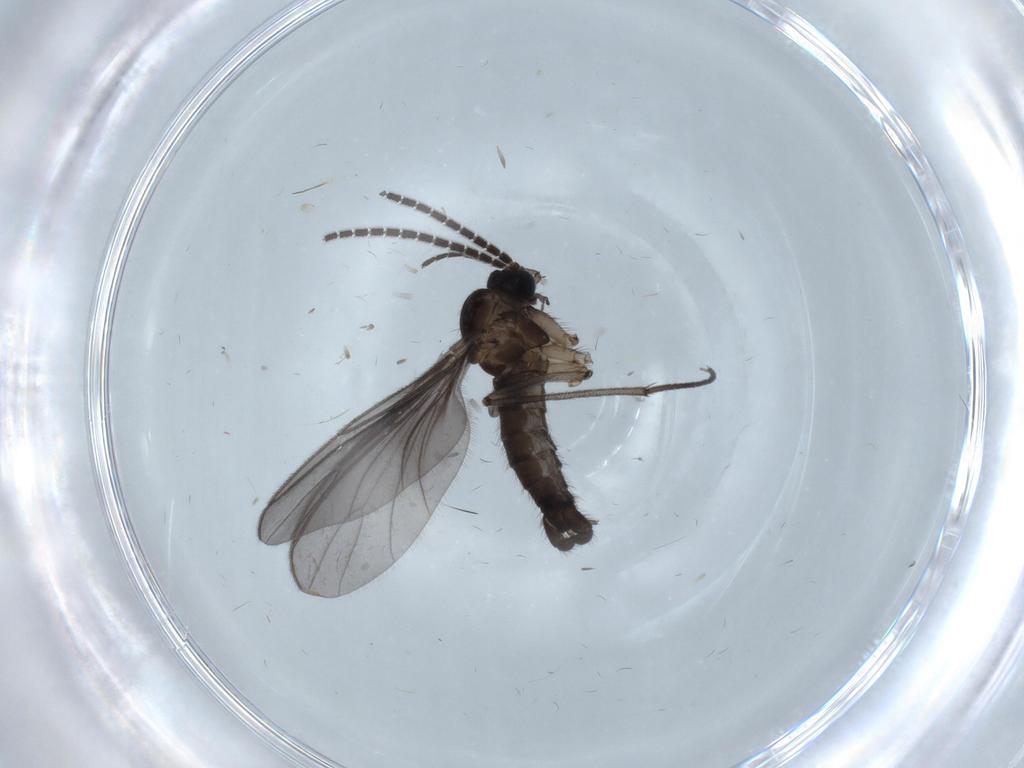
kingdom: Animalia
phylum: Arthropoda
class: Insecta
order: Diptera
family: Sciaridae
